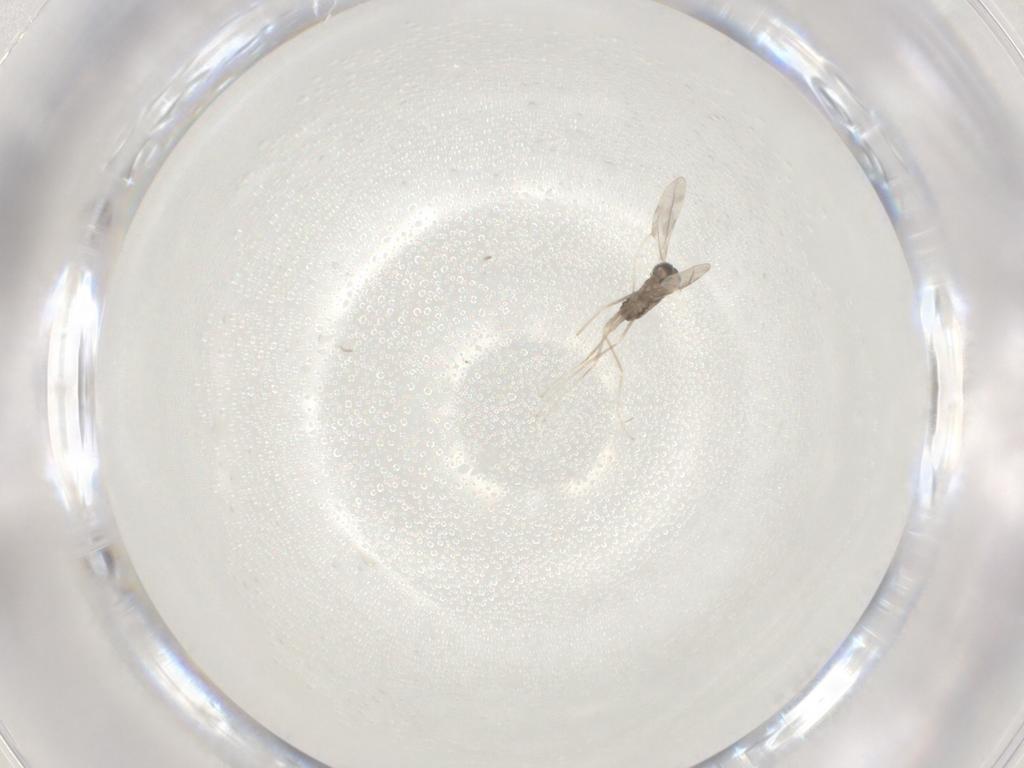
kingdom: Animalia
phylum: Arthropoda
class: Insecta
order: Diptera
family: Cecidomyiidae
